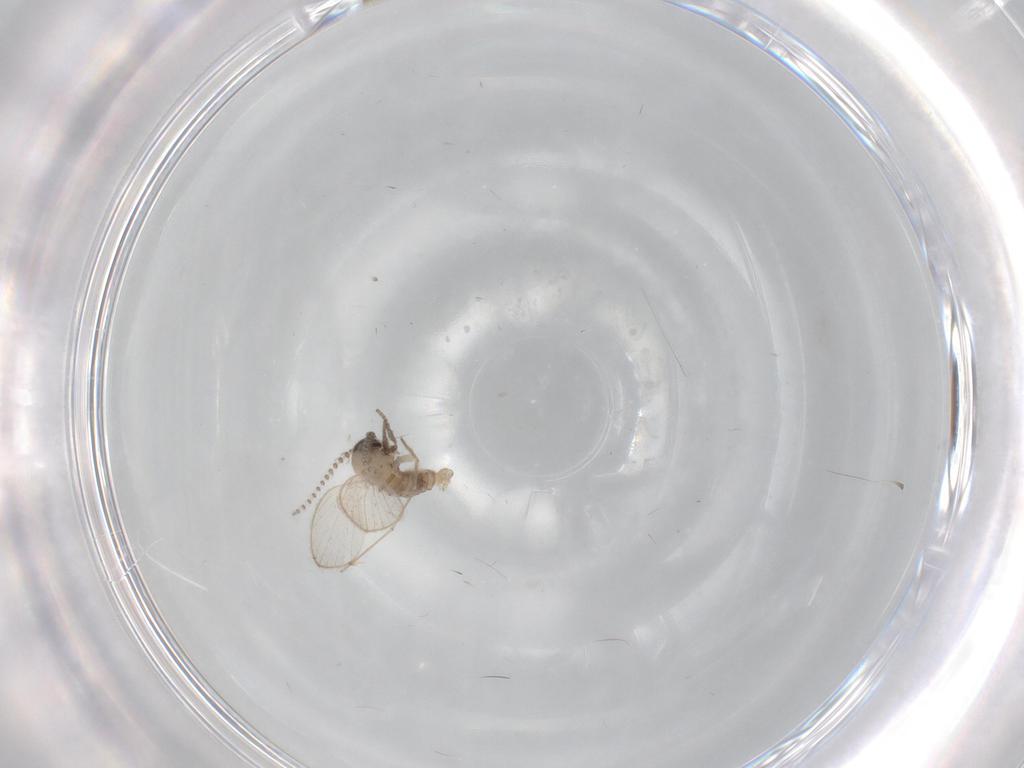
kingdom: Animalia
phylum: Arthropoda
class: Insecta
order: Diptera
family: Psychodidae
